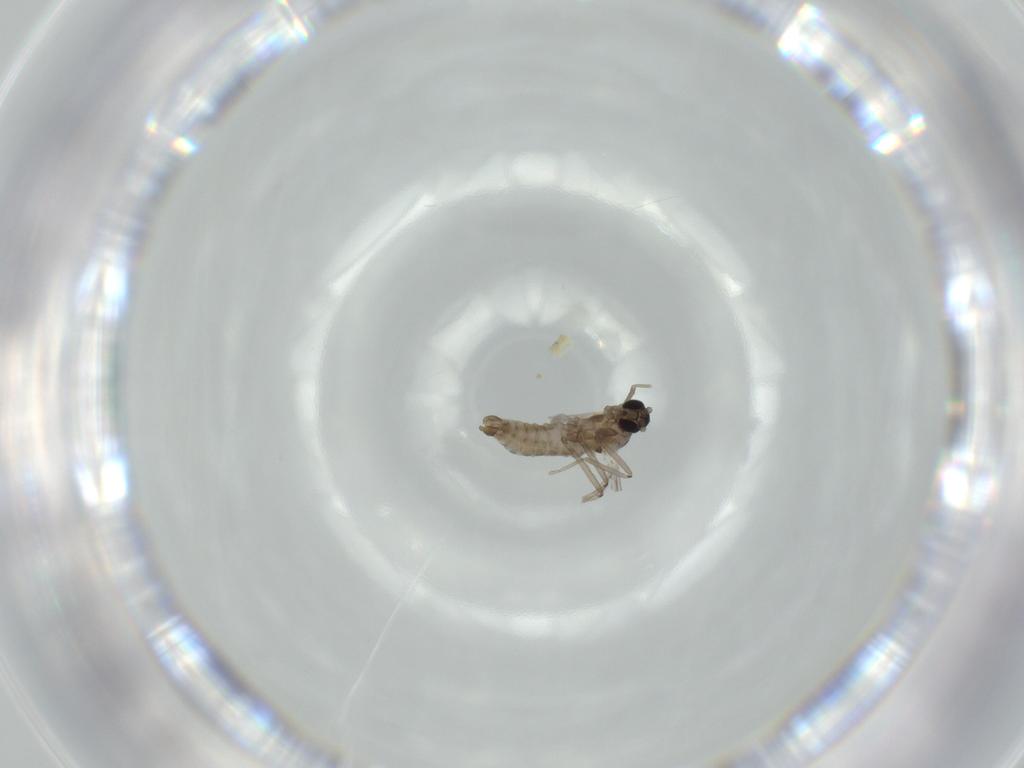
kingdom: Animalia
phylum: Arthropoda
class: Insecta
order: Diptera
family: Cecidomyiidae
